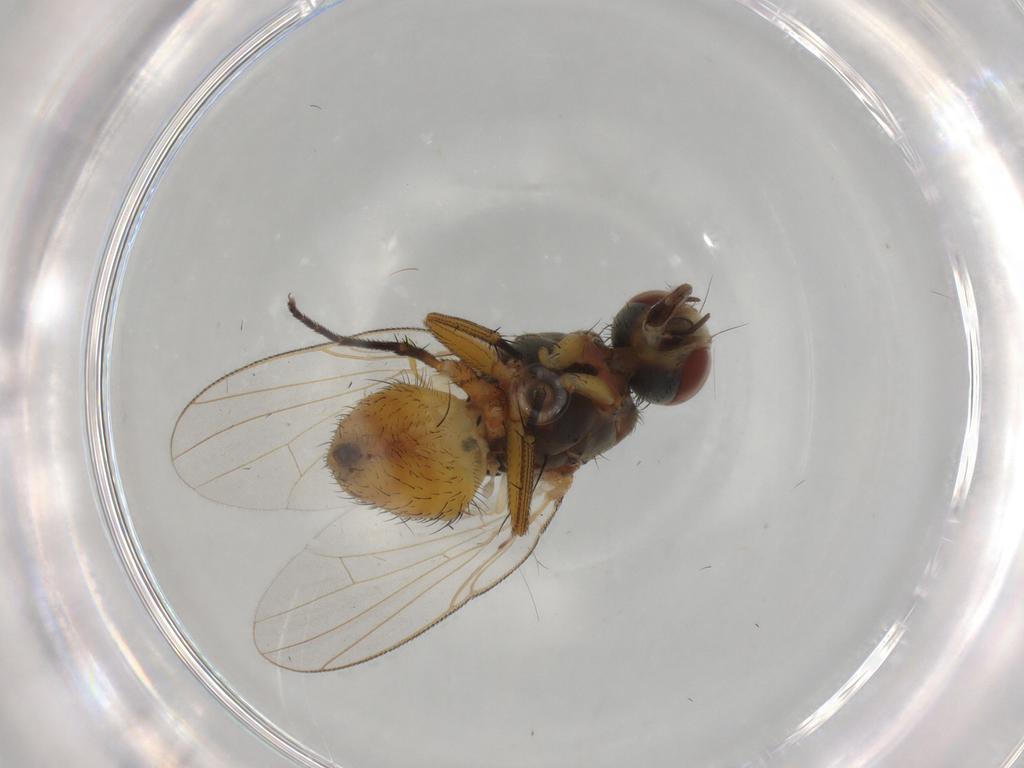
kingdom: Animalia
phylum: Arthropoda
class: Insecta
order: Diptera
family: Muscidae
